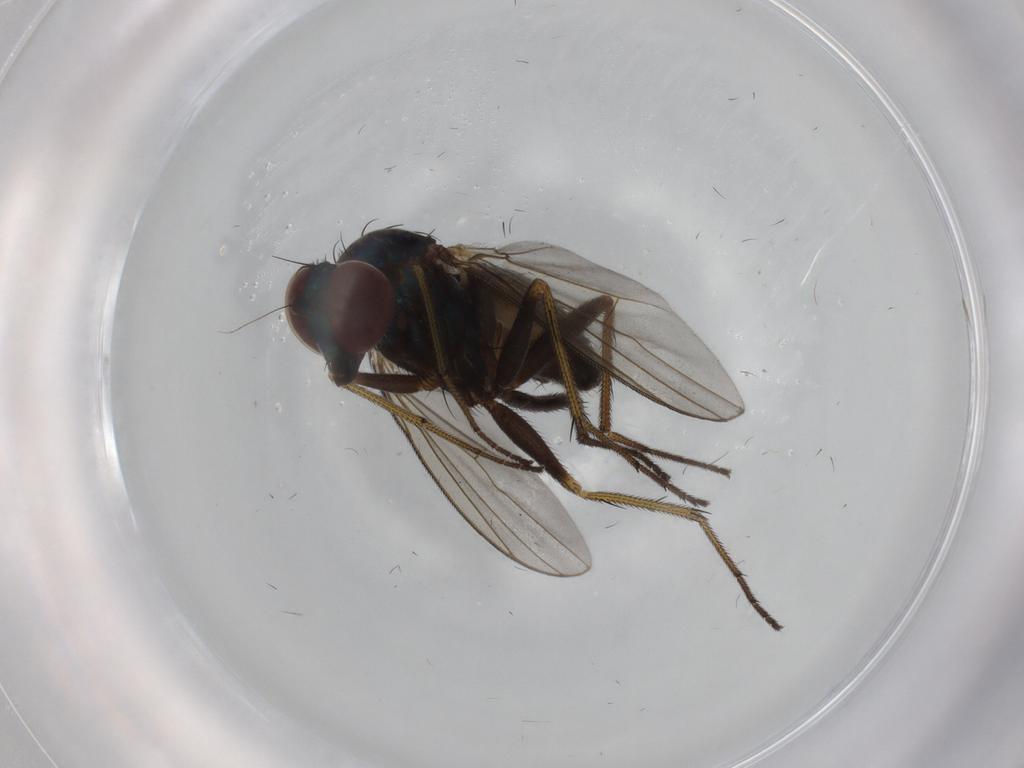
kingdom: Animalia
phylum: Arthropoda
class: Insecta
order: Diptera
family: Dolichopodidae
